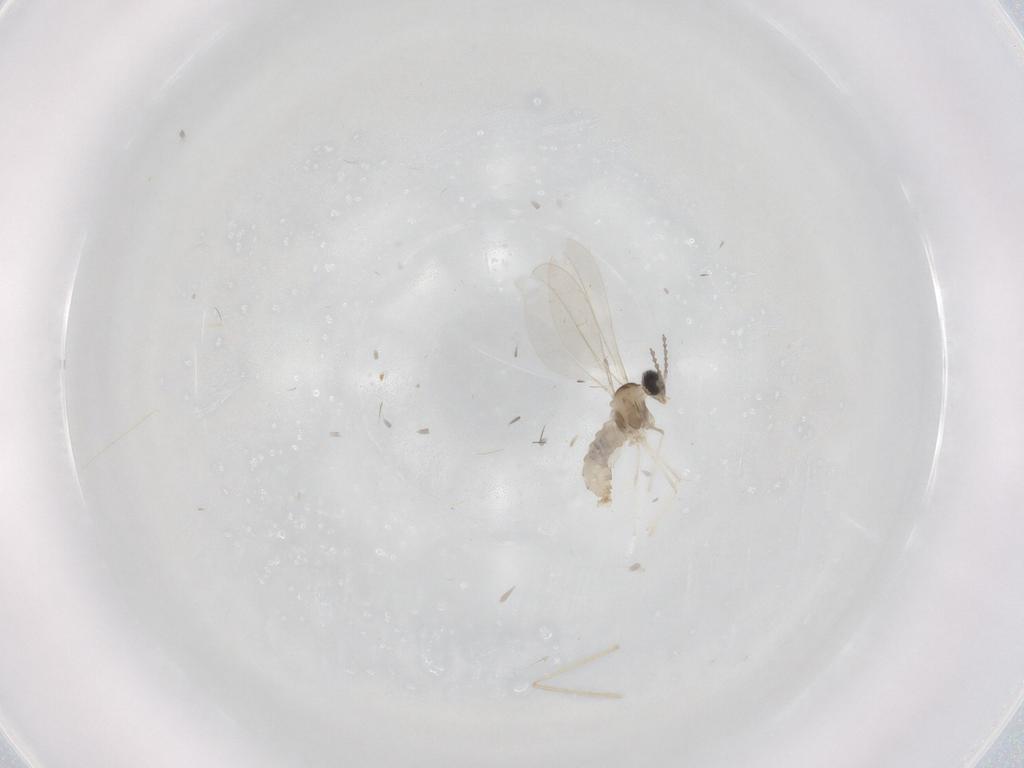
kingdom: Animalia
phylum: Arthropoda
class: Insecta
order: Diptera
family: Cecidomyiidae
